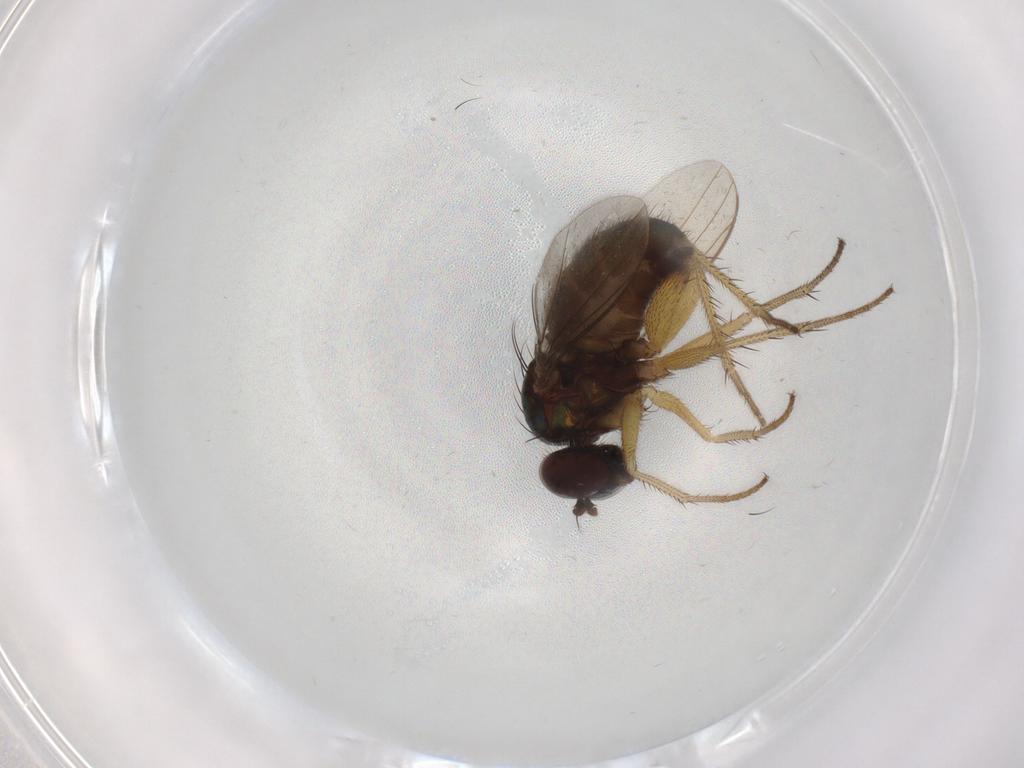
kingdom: Animalia
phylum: Arthropoda
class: Insecta
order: Diptera
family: Dolichopodidae
